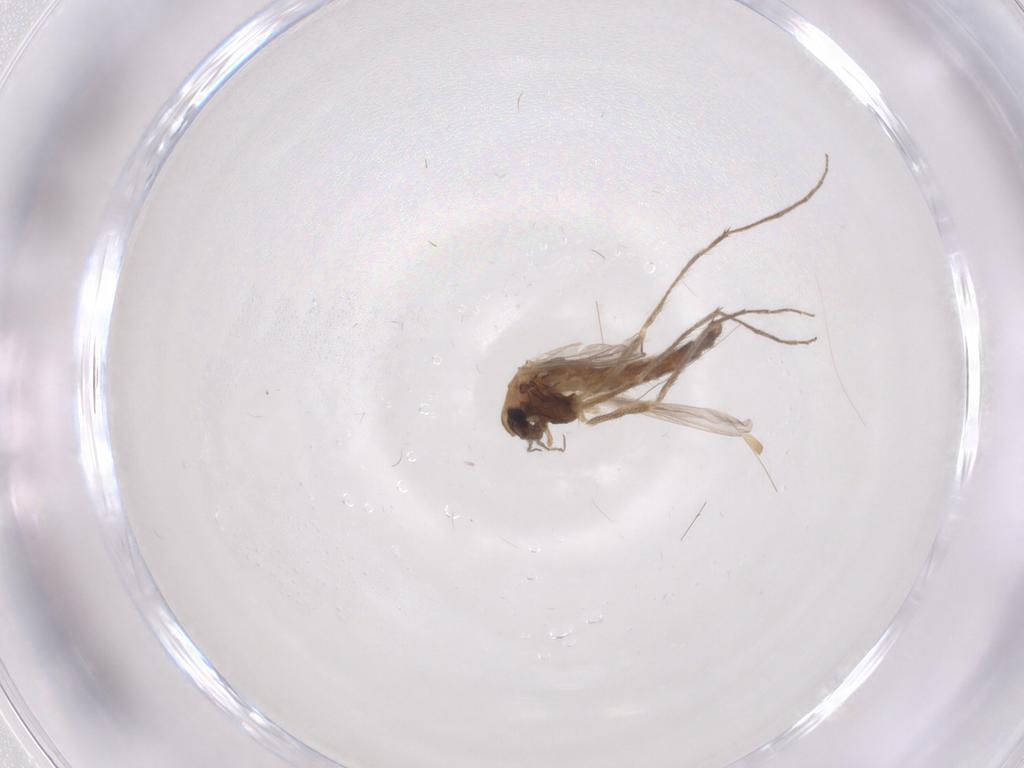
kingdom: Animalia
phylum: Arthropoda
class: Insecta
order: Diptera
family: Chironomidae
